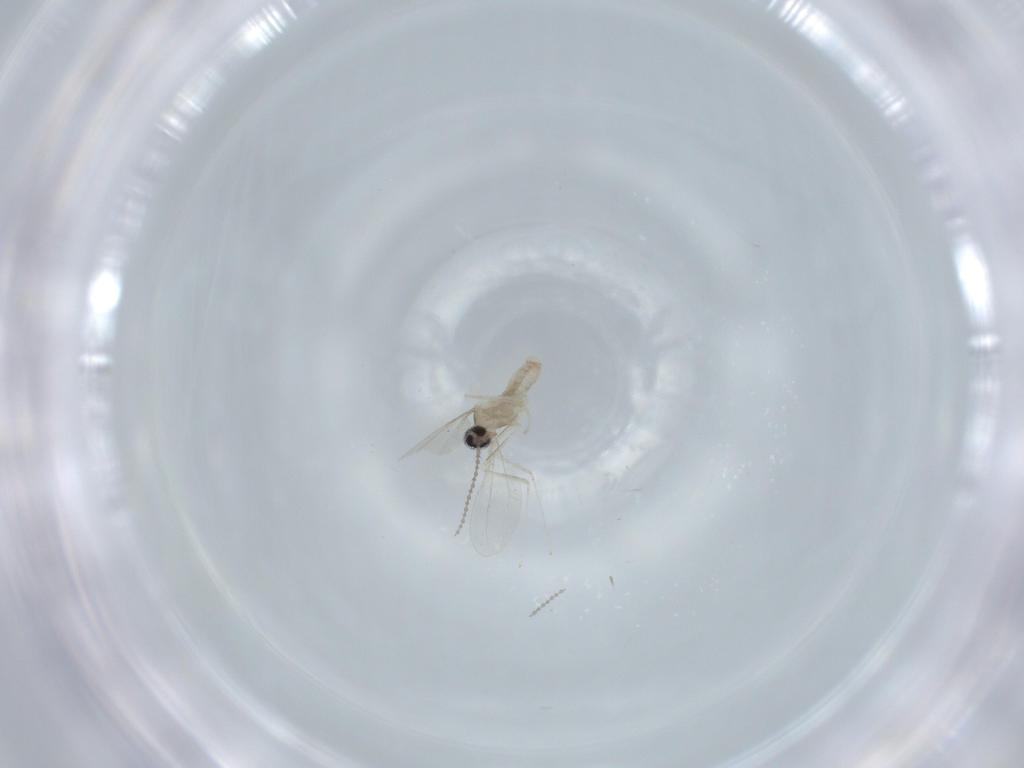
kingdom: Animalia
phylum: Arthropoda
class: Insecta
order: Diptera
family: Cecidomyiidae
